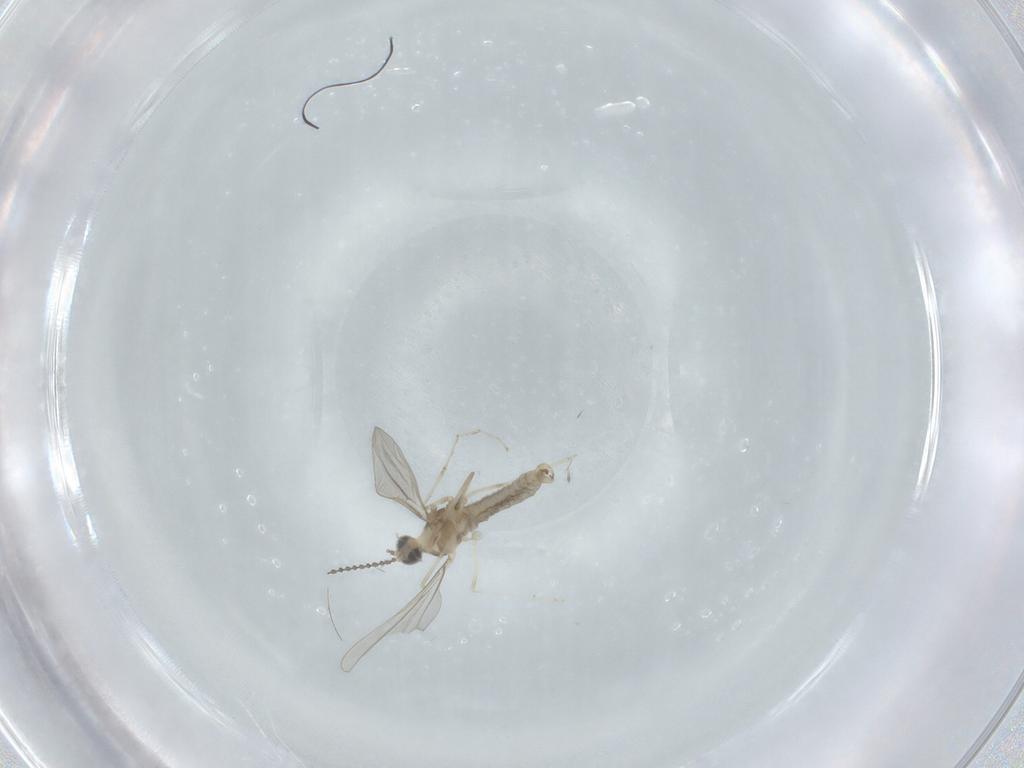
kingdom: Animalia
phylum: Arthropoda
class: Insecta
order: Diptera
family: Cecidomyiidae
